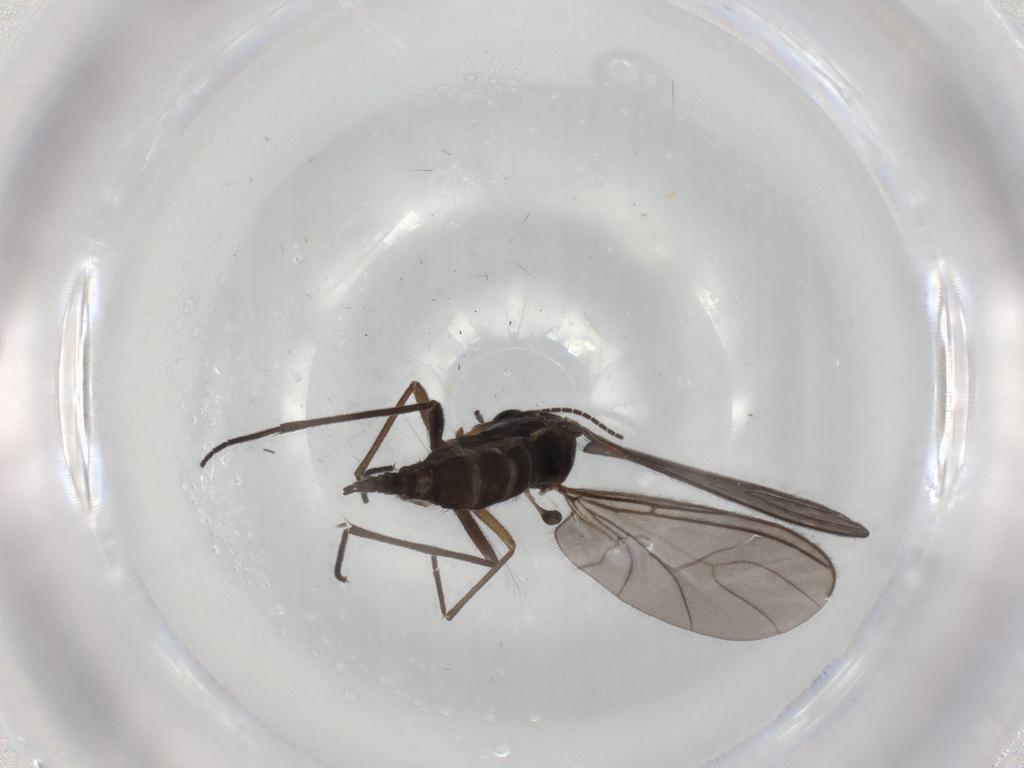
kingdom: Animalia
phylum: Arthropoda
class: Insecta
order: Diptera
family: Sciaridae
